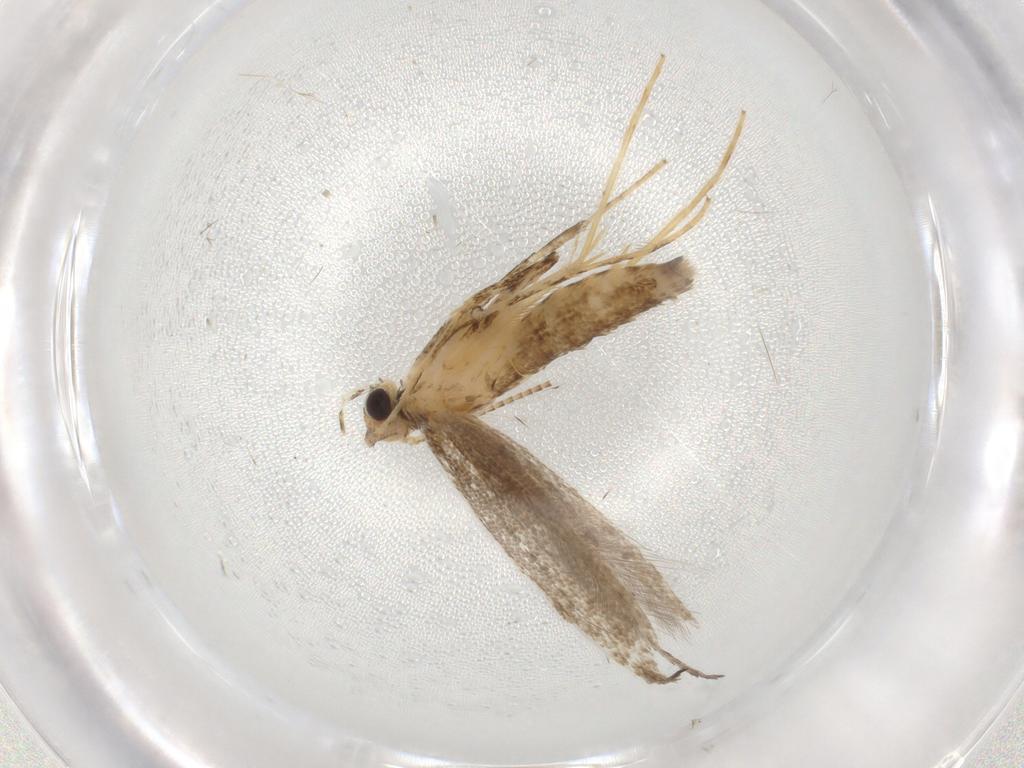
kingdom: Animalia
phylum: Arthropoda
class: Insecta
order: Lepidoptera
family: Gracillariidae
